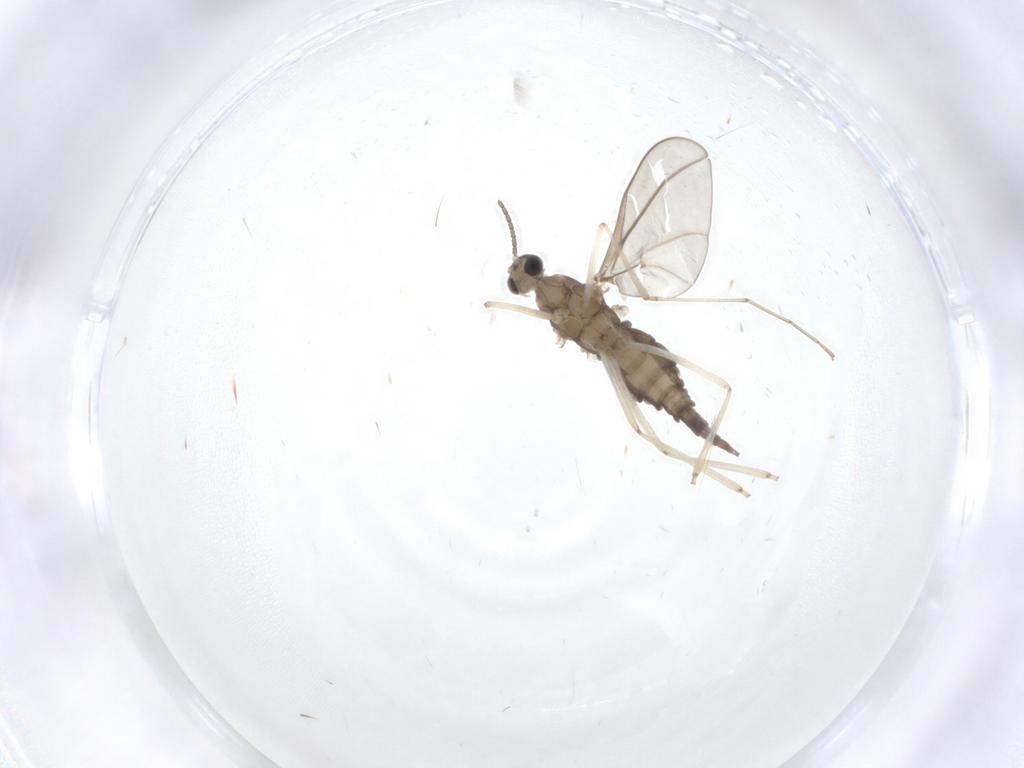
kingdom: Animalia
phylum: Arthropoda
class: Insecta
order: Diptera
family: Cecidomyiidae
